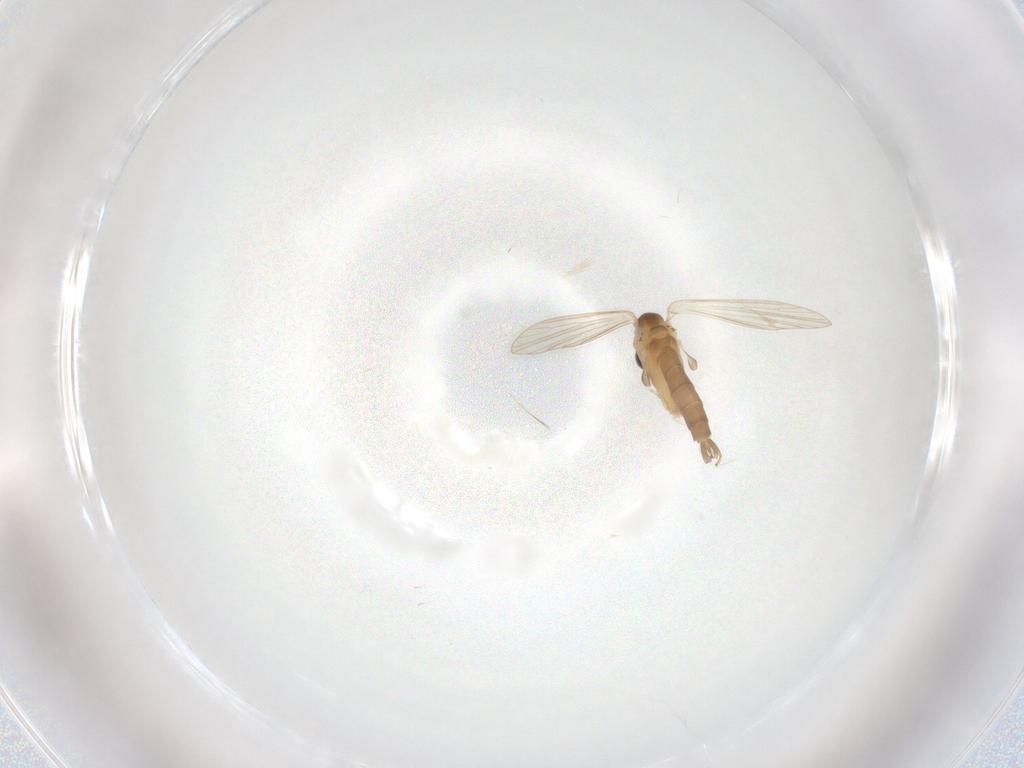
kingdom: Animalia
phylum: Arthropoda
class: Insecta
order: Diptera
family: Psychodidae
